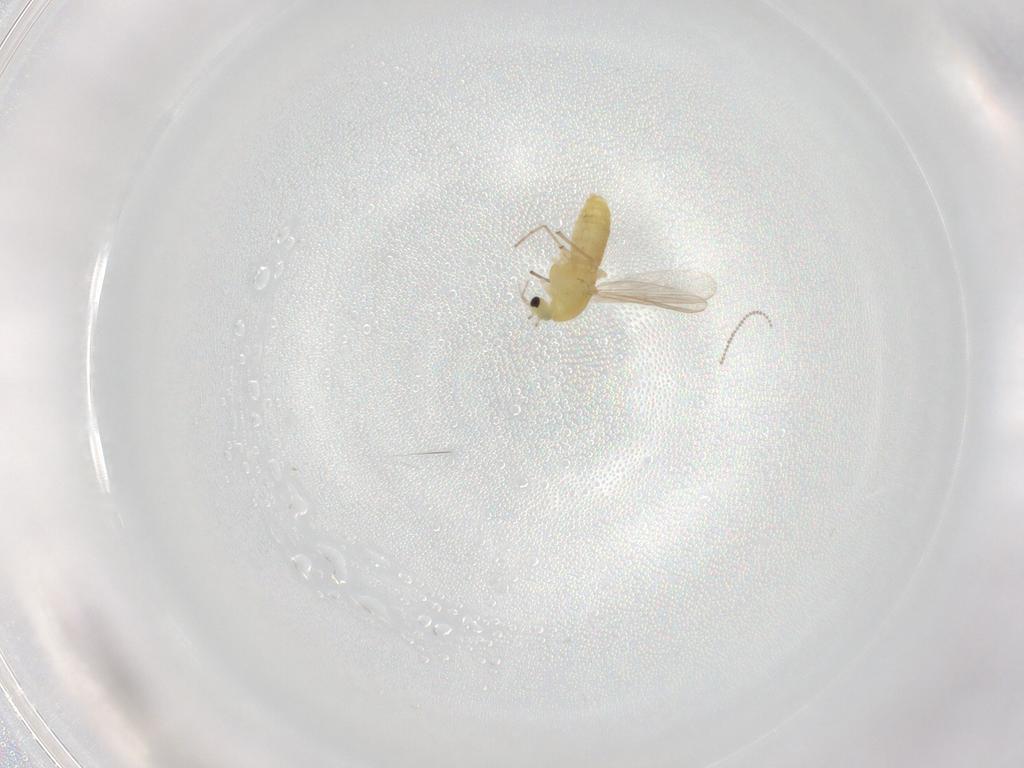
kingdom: Animalia
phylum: Arthropoda
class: Insecta
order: Diptera
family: Chironomidae
